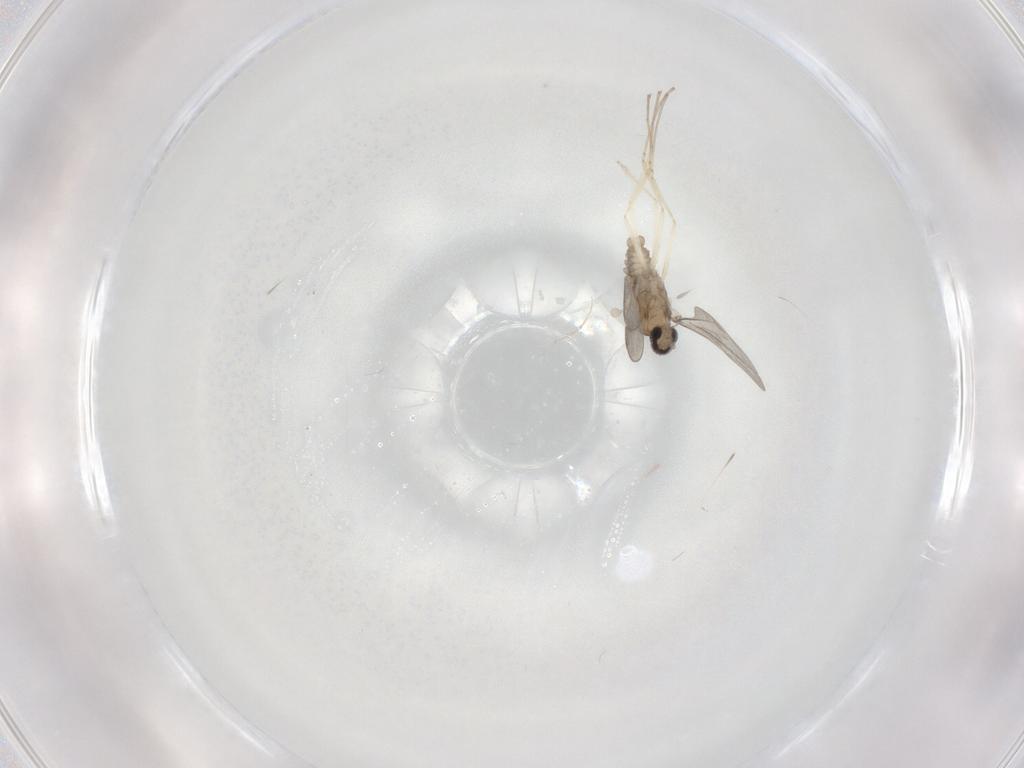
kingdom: Animalia
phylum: Arthropoda
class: Insecta
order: Diptera
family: Cecidomyiidae
